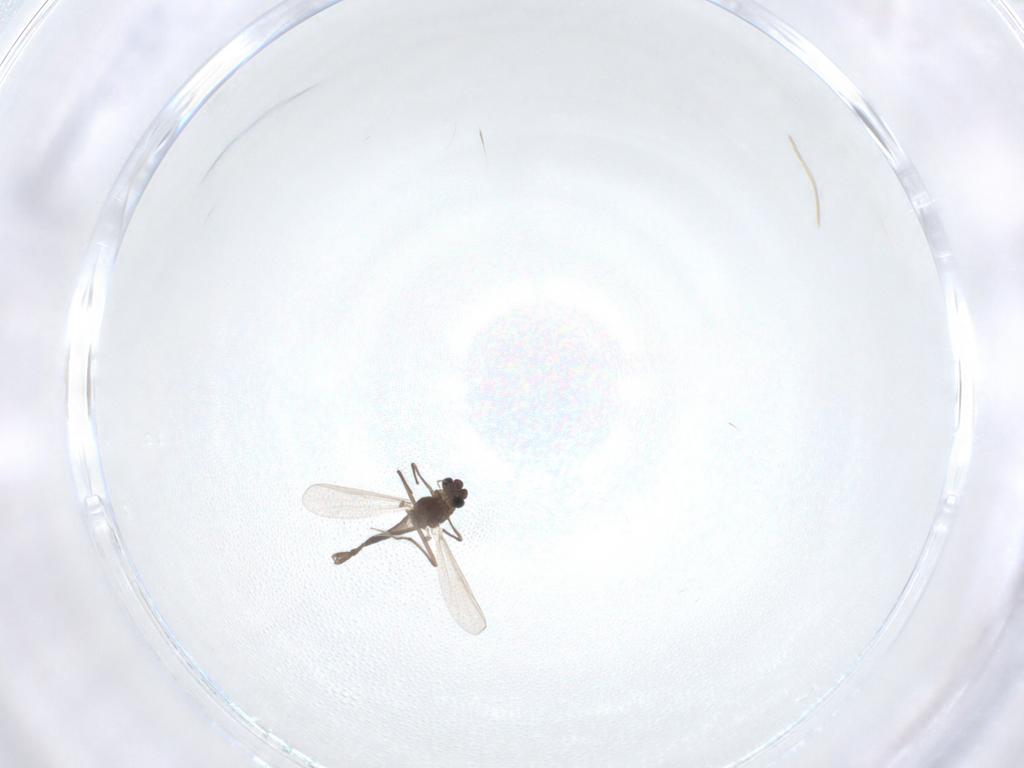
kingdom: Animalia
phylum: Arthropoda
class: Insecta
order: Diptera
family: Chironomidae
